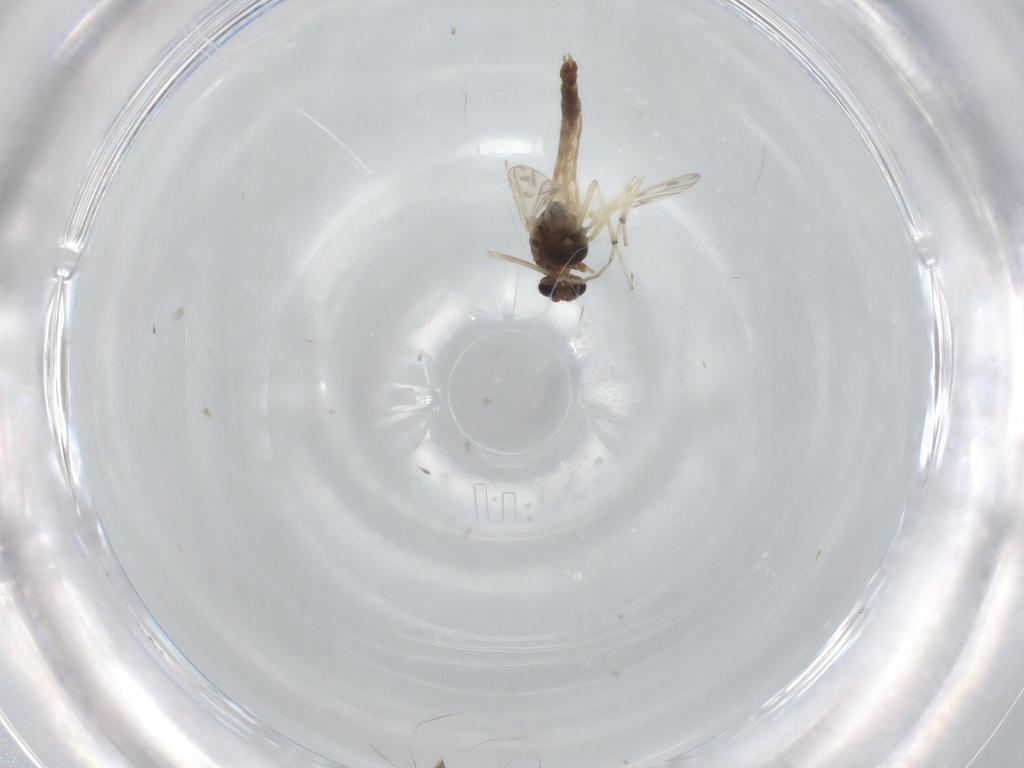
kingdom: Animalia
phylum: Arthropoda
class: Insecta
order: Diptera
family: Chironomidae
